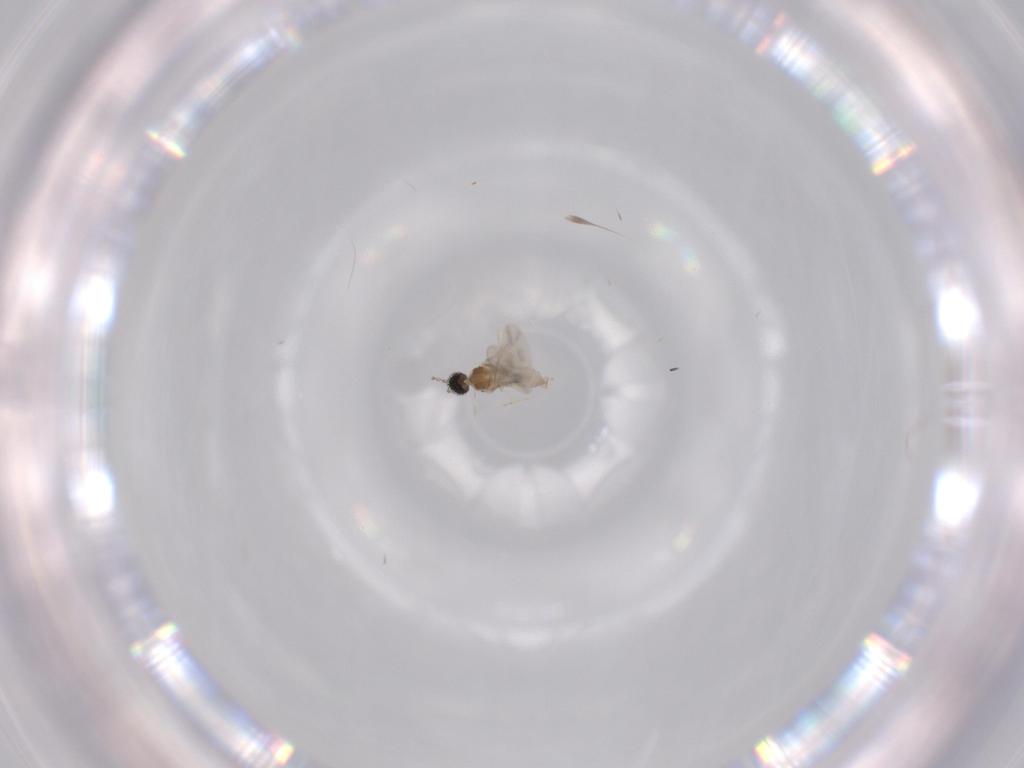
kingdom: Animalia
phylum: Arthropoda
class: Insecta
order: Diptera
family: Cecidomyiidae
